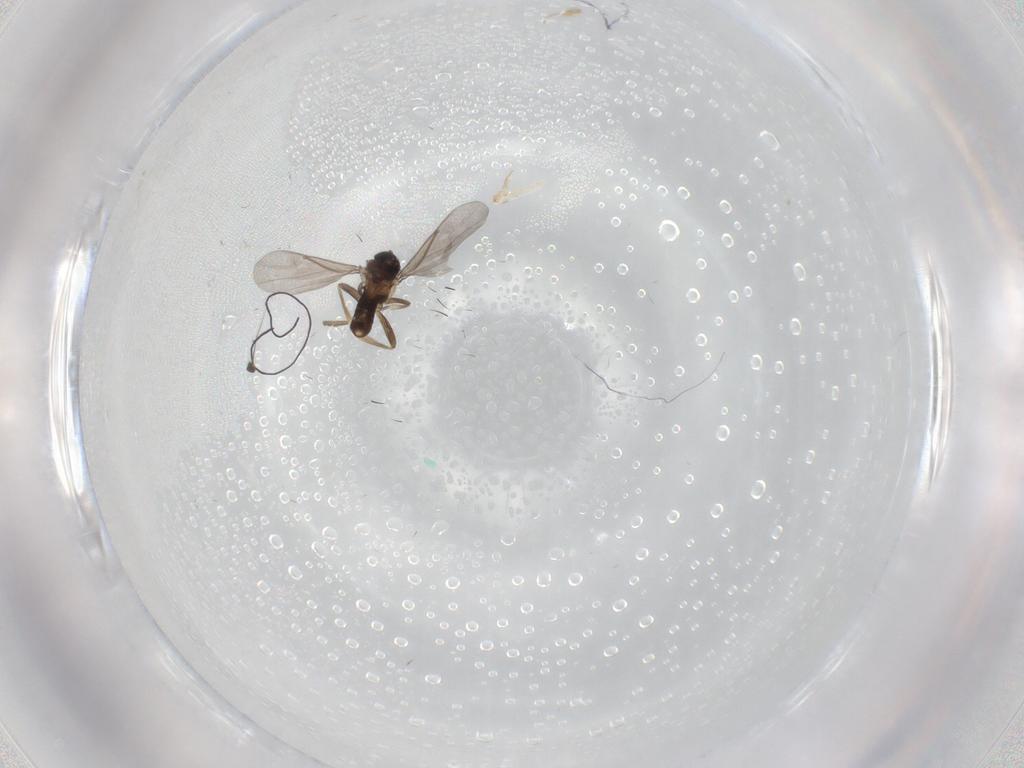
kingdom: Animalia
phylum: Arthropoda
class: Insecta
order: Diptera
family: Dolichopodidae
